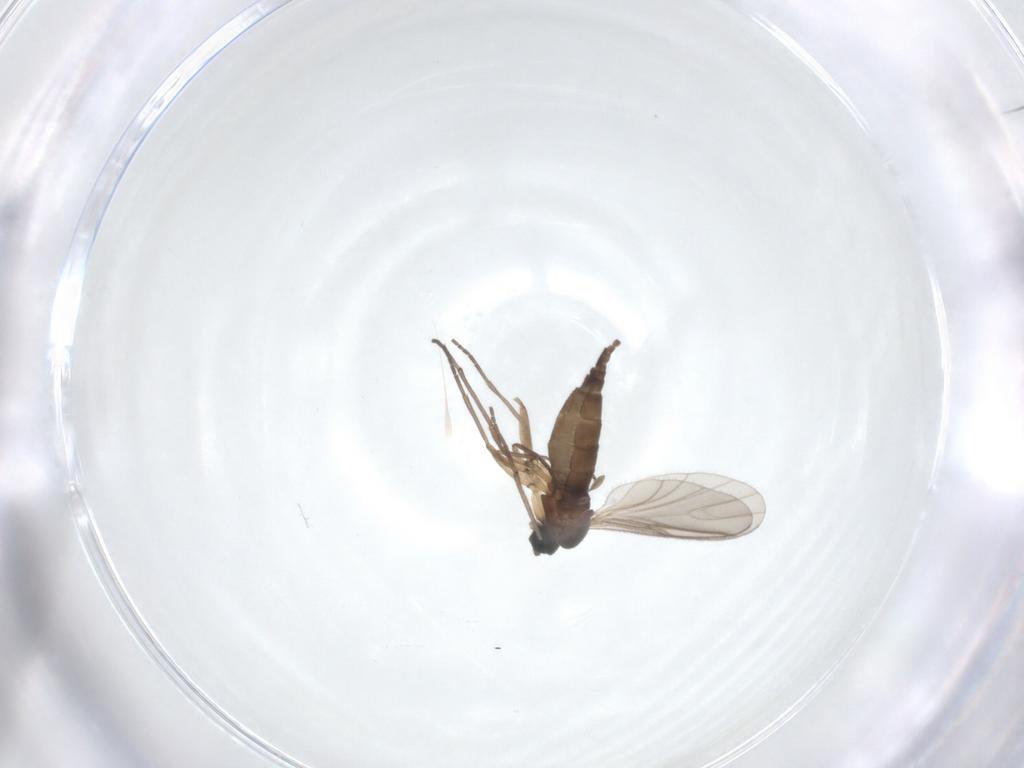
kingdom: Animalia
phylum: Arthropoda
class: Insecta
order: Diptera
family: Sciaridae
